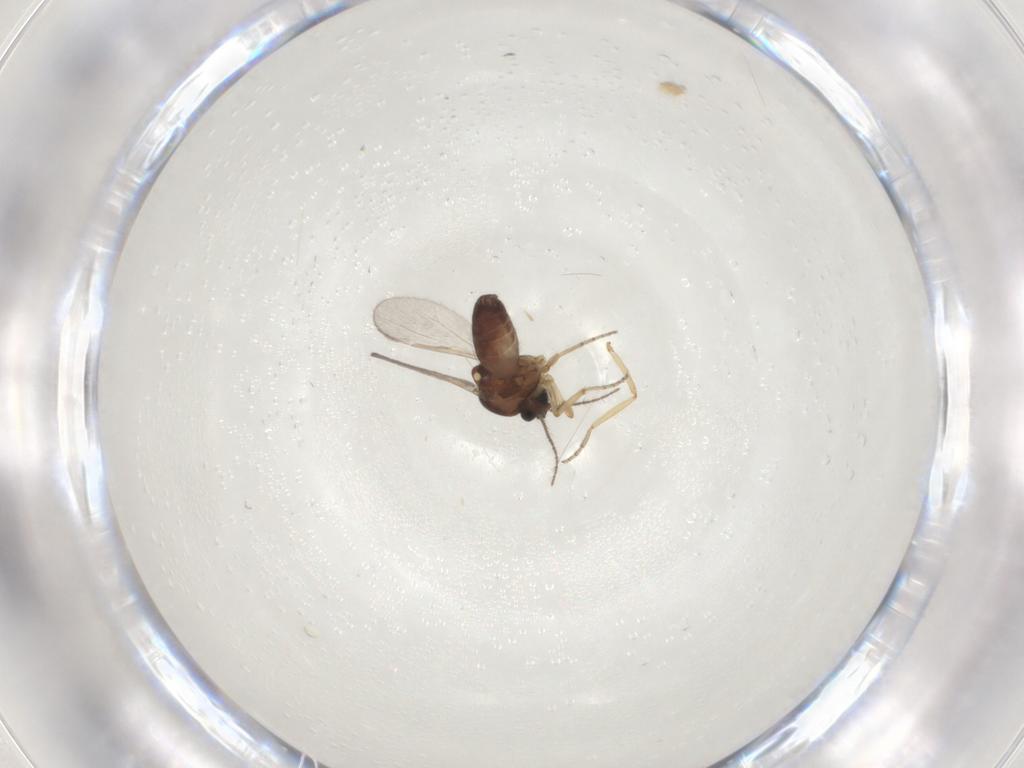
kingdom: Animalia
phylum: Arthropoda
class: Insecta
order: Diptera
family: Ceratopogonidae
